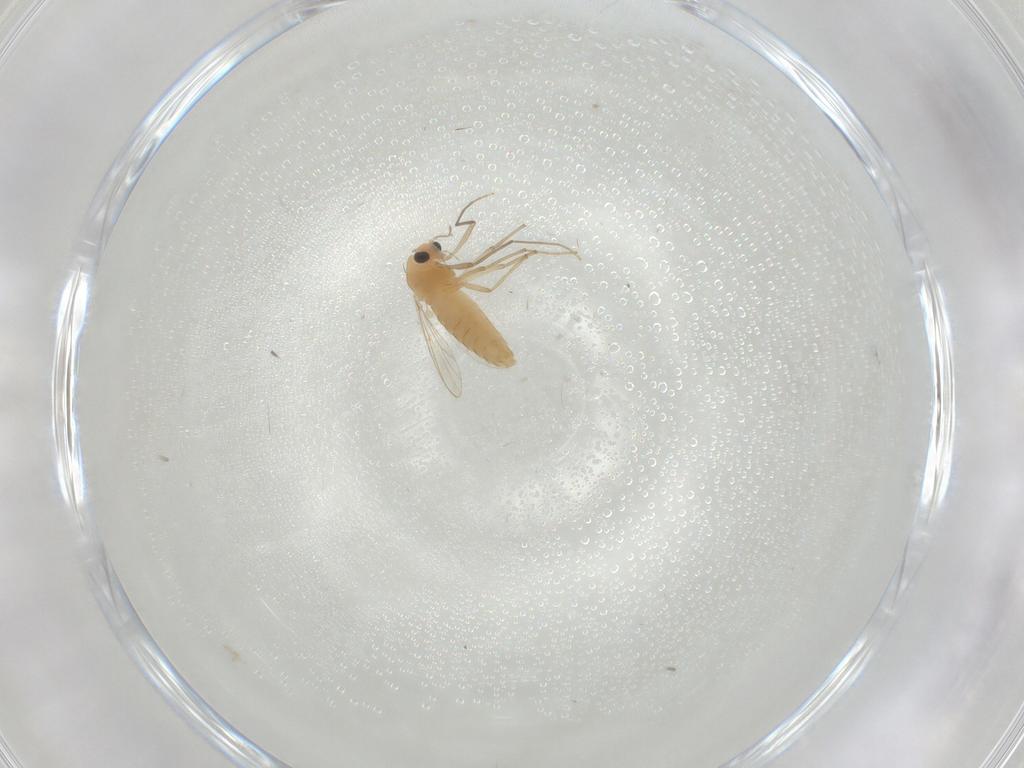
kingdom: Animalia
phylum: Arthropoda
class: Insecta
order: Diptera
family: Chironomidae
